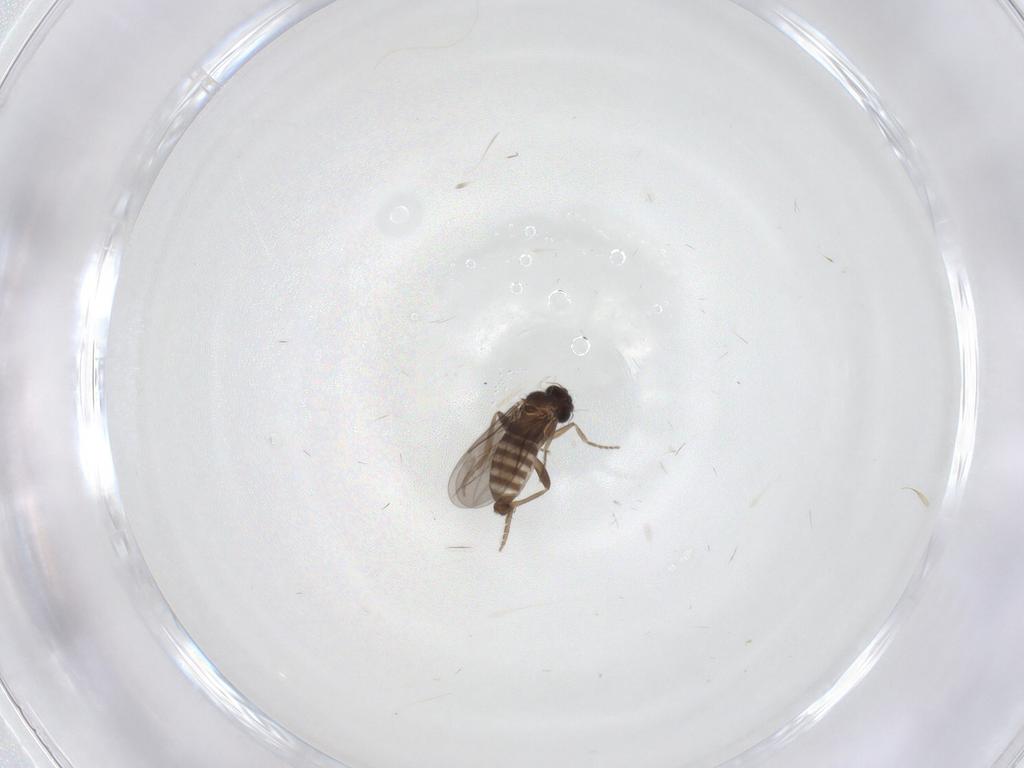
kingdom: Animalia
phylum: Arthropoda
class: Insecta
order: Diptera
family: Limoniidae
